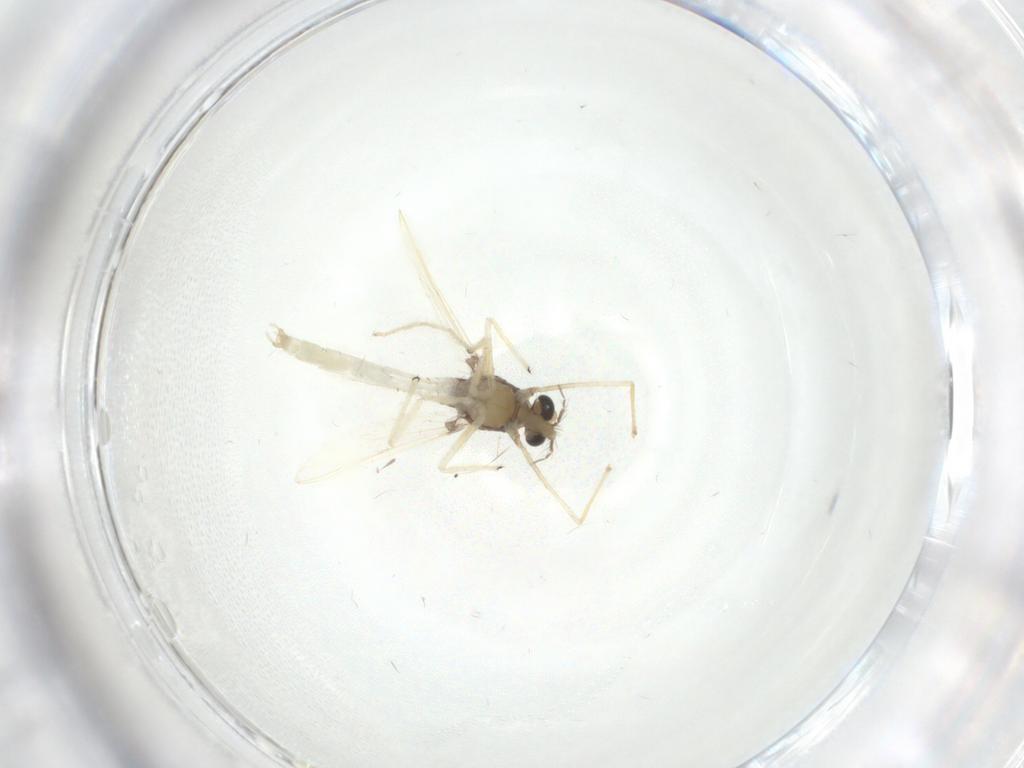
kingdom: Animalia
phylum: Arthropoda
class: Insecta
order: Diptera
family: Chironomidae
